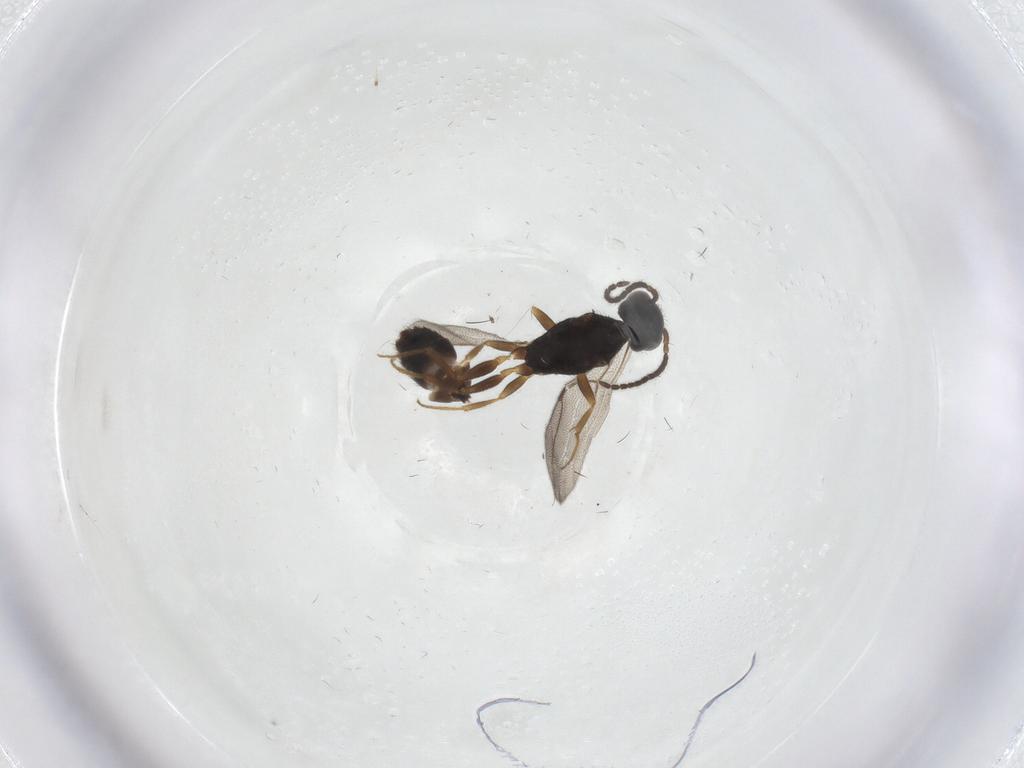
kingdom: Animalia
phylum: Arthropoda
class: Insecta
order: Hymenoptera
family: Bethylidae
